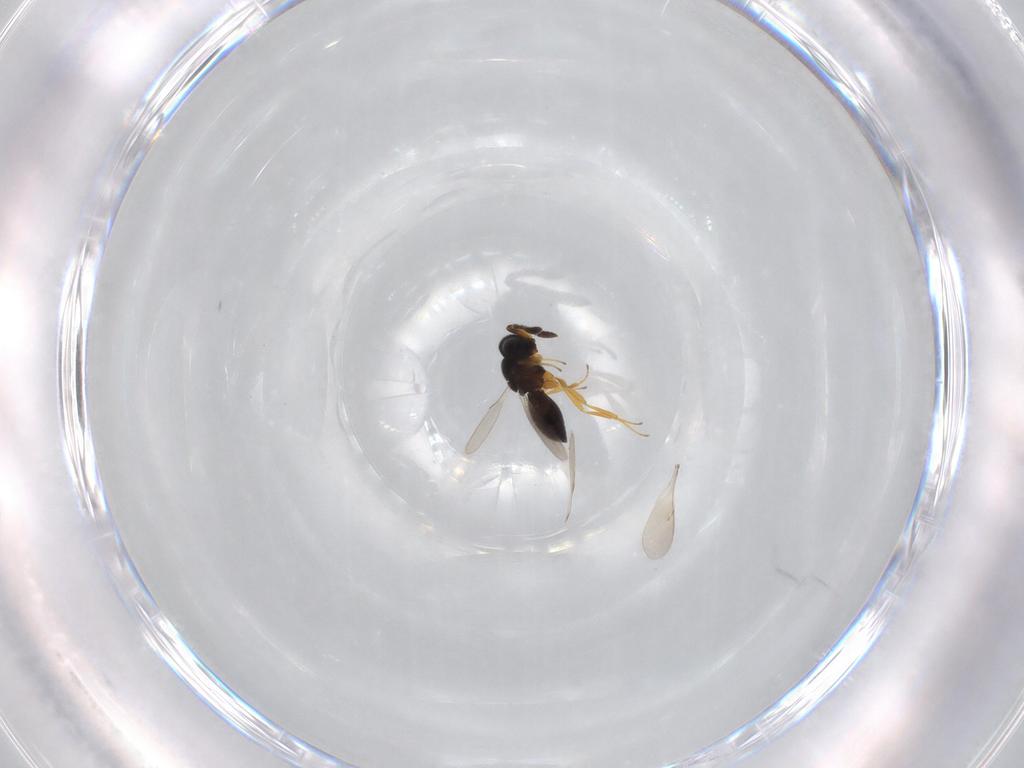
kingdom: Animalia
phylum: Arthropoda
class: Insecta
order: Hymenoptera
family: Scelionidae
